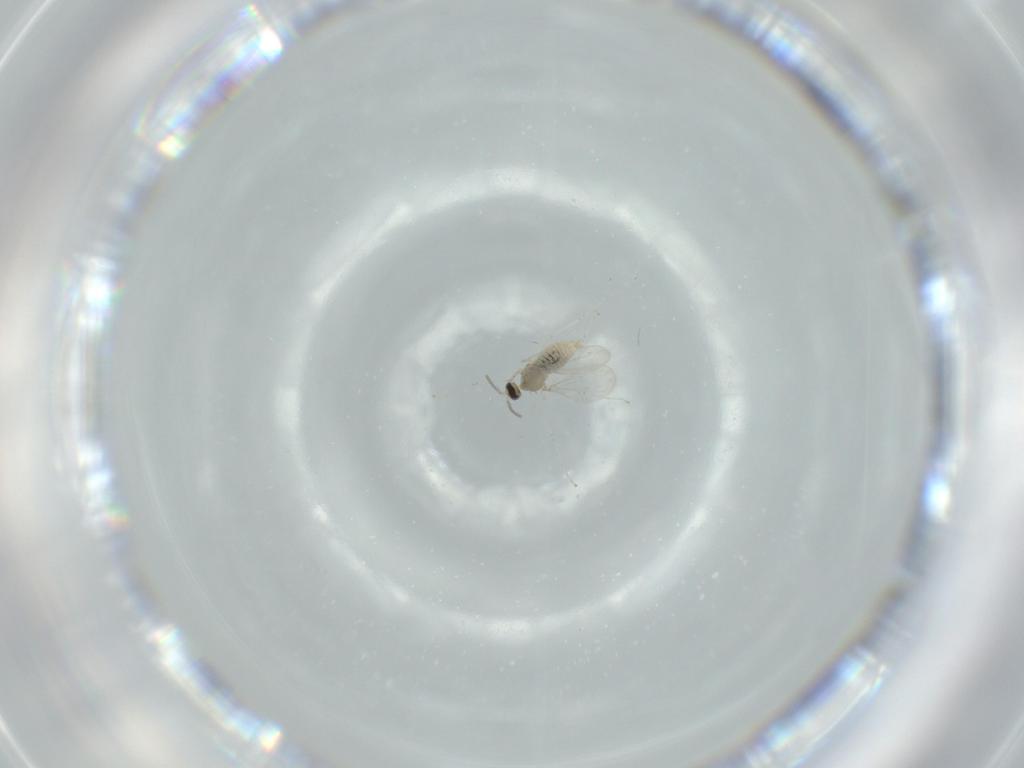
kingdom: Animalia
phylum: Arthropoda
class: Insecta
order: Diptera
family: Cecidomyiidae
